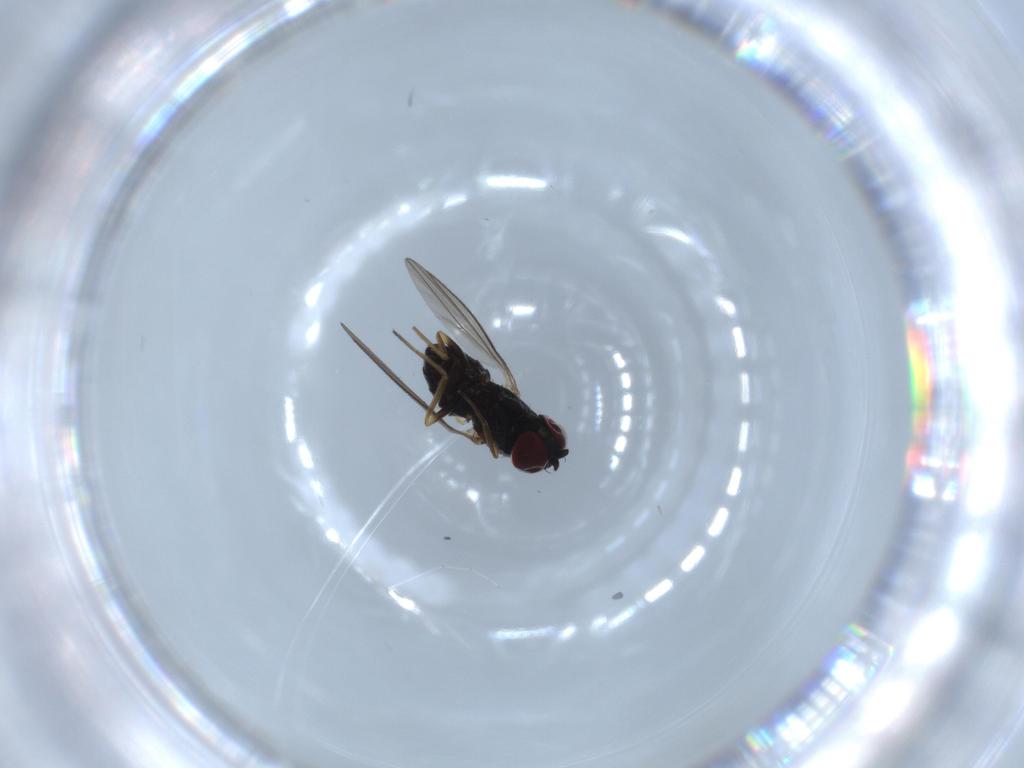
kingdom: Animalia
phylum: Arthropoda
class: Insecta
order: Diptera
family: Dolichopodidae
